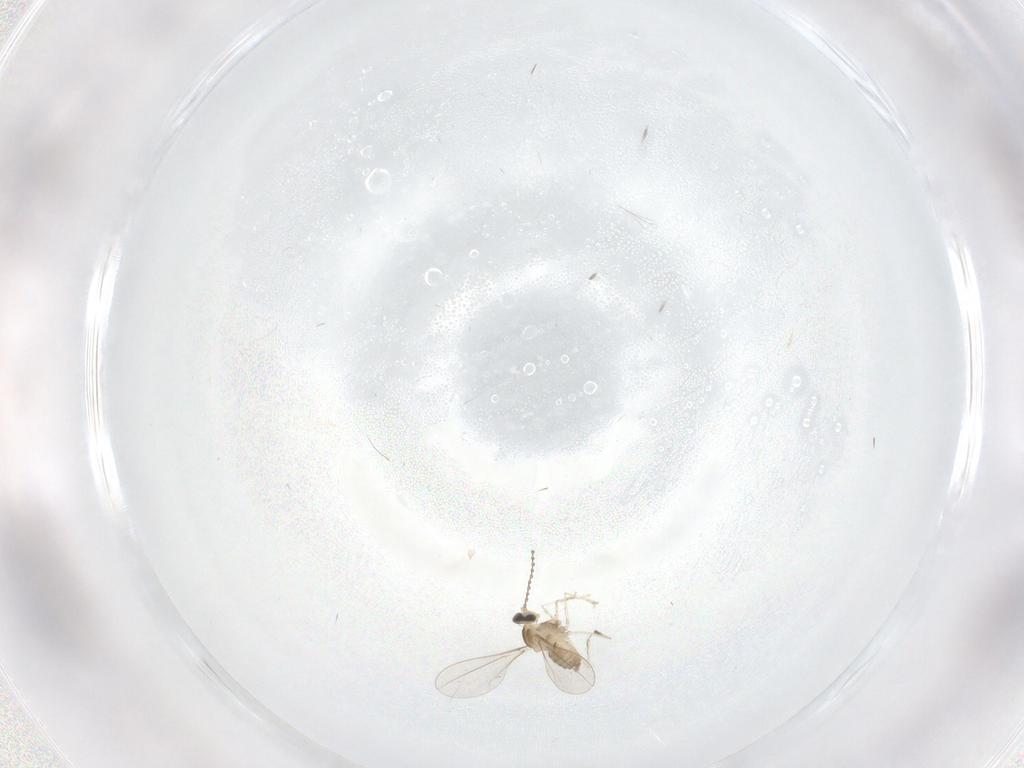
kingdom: Animalia
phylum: Arthropoda
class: Insecta
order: Diptera
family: Cecidomyiidae
